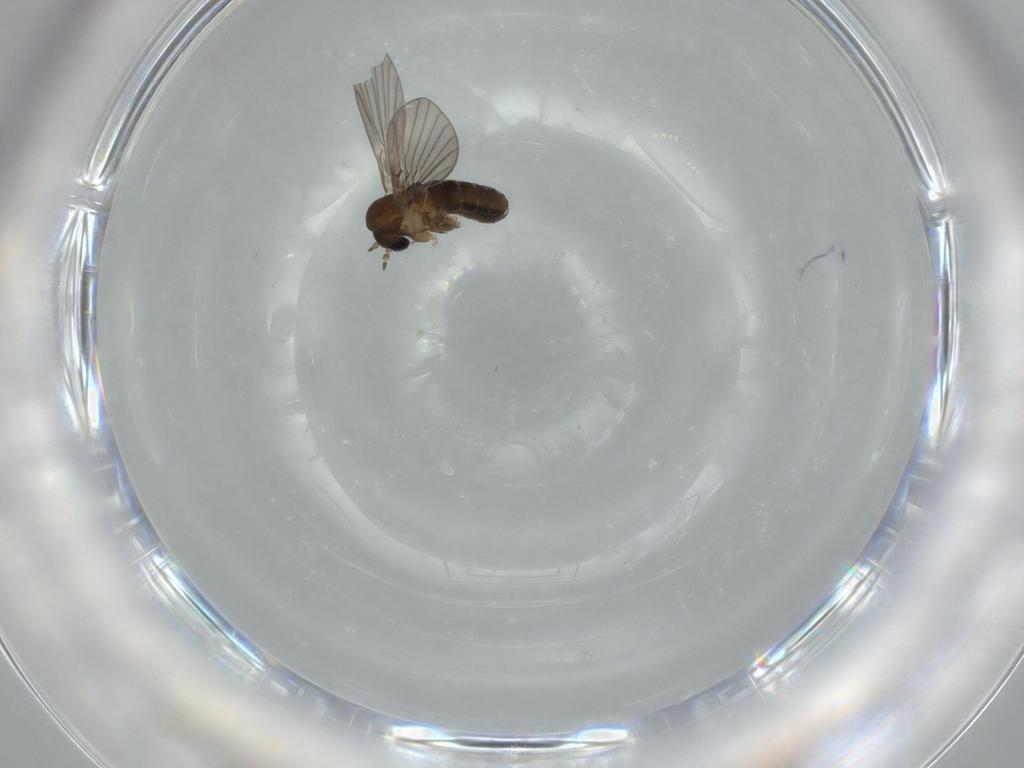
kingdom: Animalia
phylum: Arthropoda
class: Insecta
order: Diptera
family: Psychodidae
